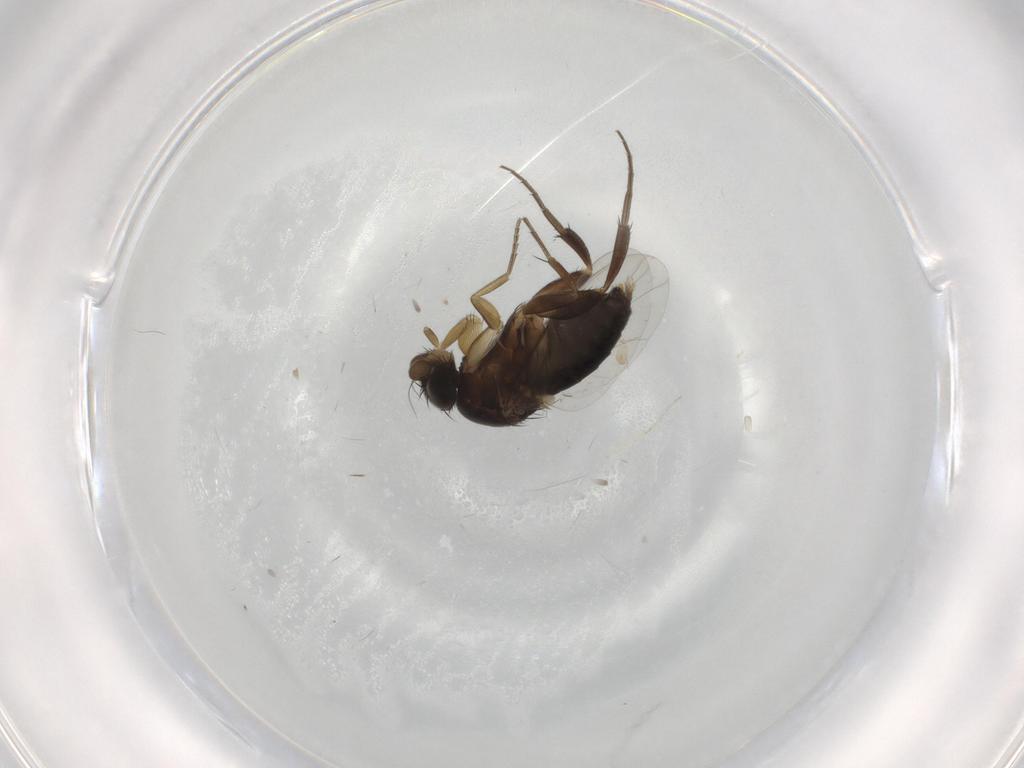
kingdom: Animalia
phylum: Arthropoda
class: Insecta
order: Diptera
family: Phoridae
